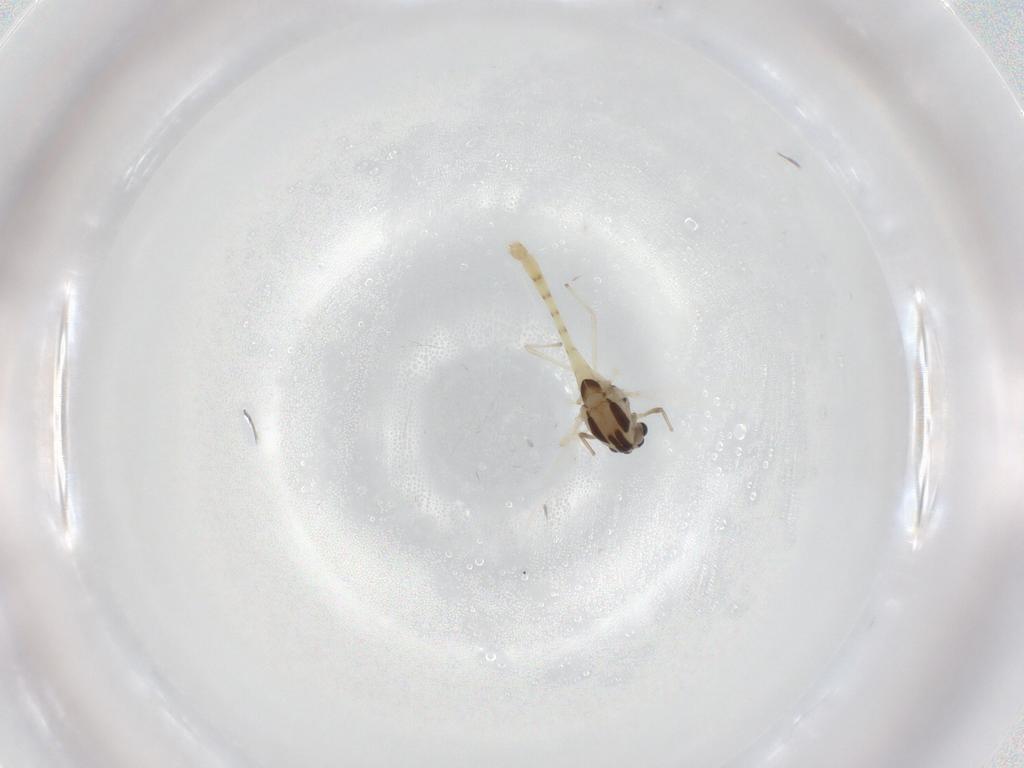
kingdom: Animalia
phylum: Arthropoda
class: Insecta
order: Diptera
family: Chironomidae
